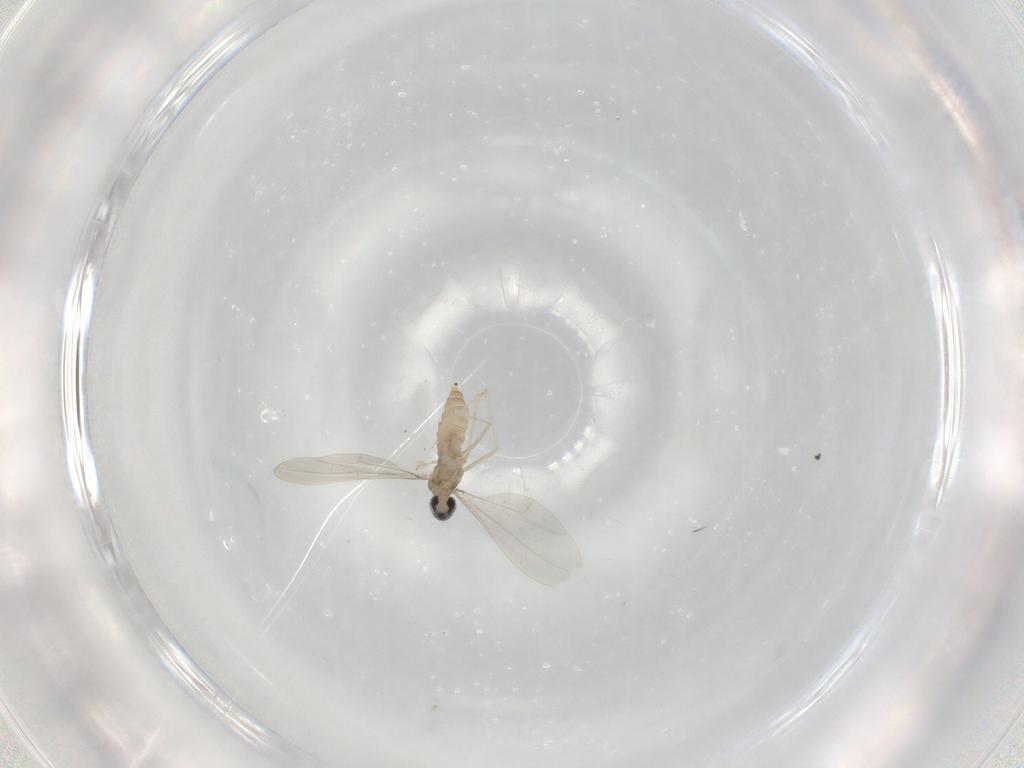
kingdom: Animalia
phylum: Arthropoda
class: Insecta
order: Diptera
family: Cecidomyiidae
